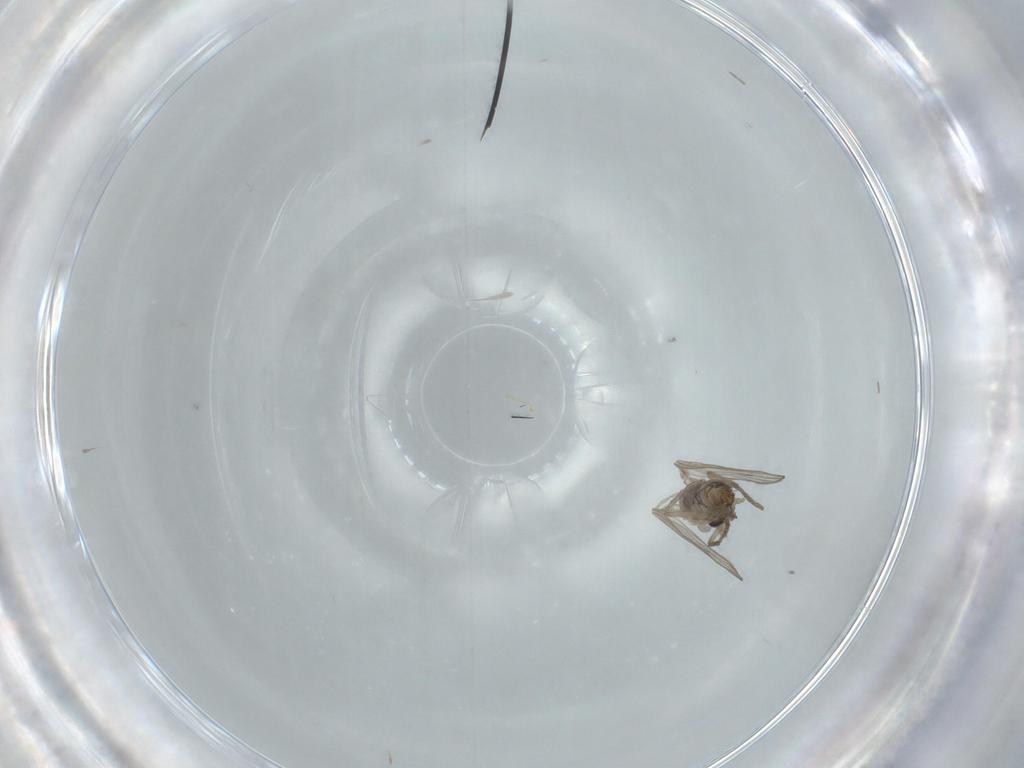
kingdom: Animalia
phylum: Arthropoda
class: Insecta
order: Diptera
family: Psychodidae
